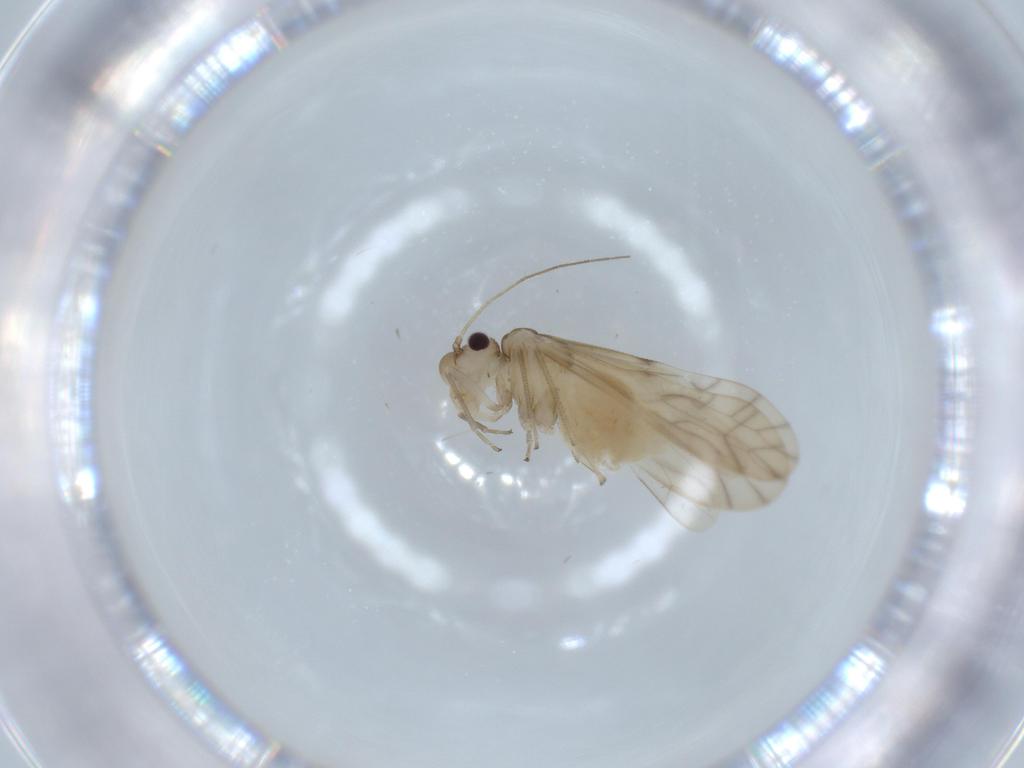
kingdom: Animalia
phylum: Arthropoda
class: Insecta
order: Psocodea
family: Caeciliusidae
